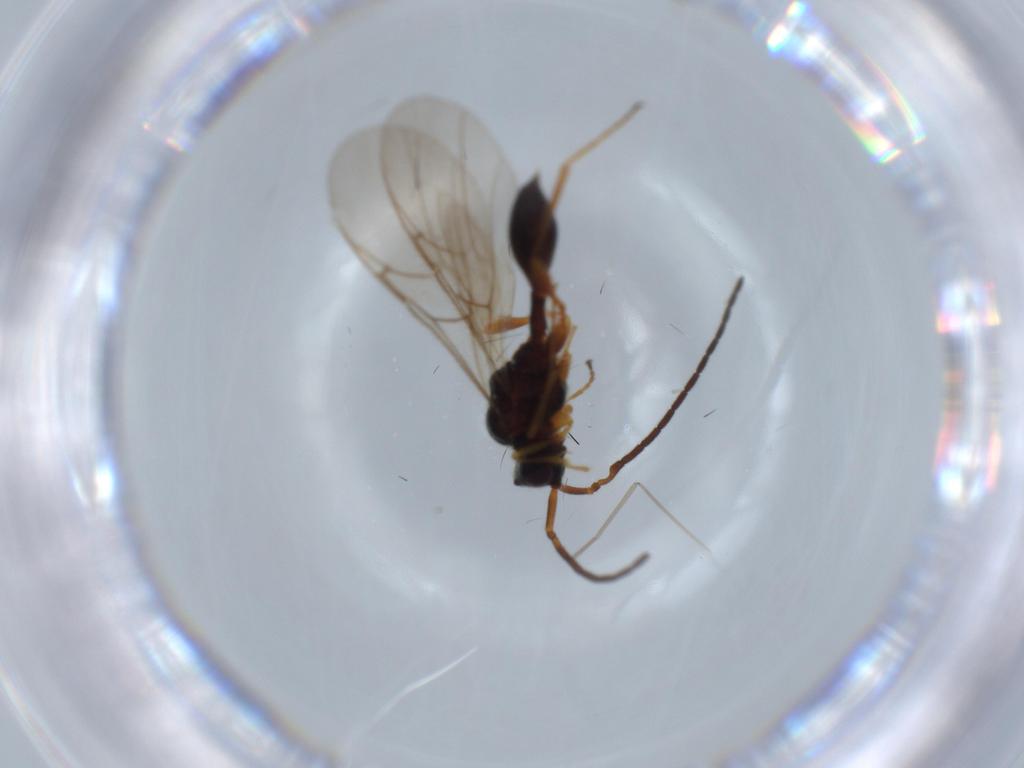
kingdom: Animalia
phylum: Arthropoda
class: Insecta
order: Hymenoptera
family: Braconidae
